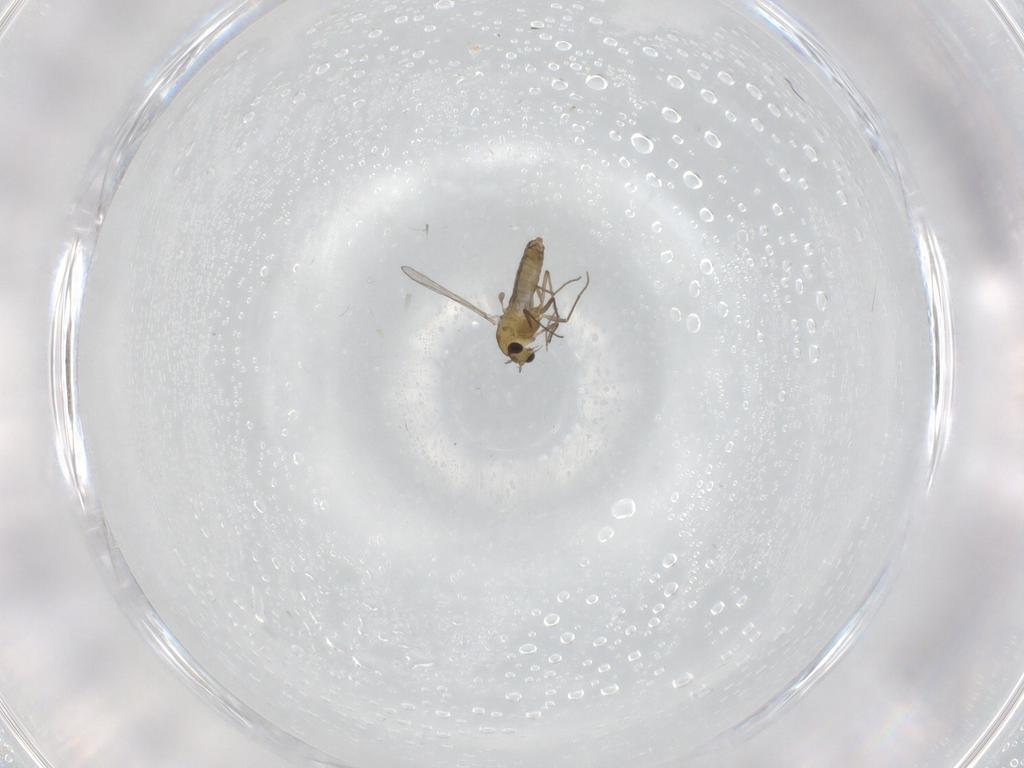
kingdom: Animalia
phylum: Arthropoda
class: Insecta
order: Diptera
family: Chironomidae
